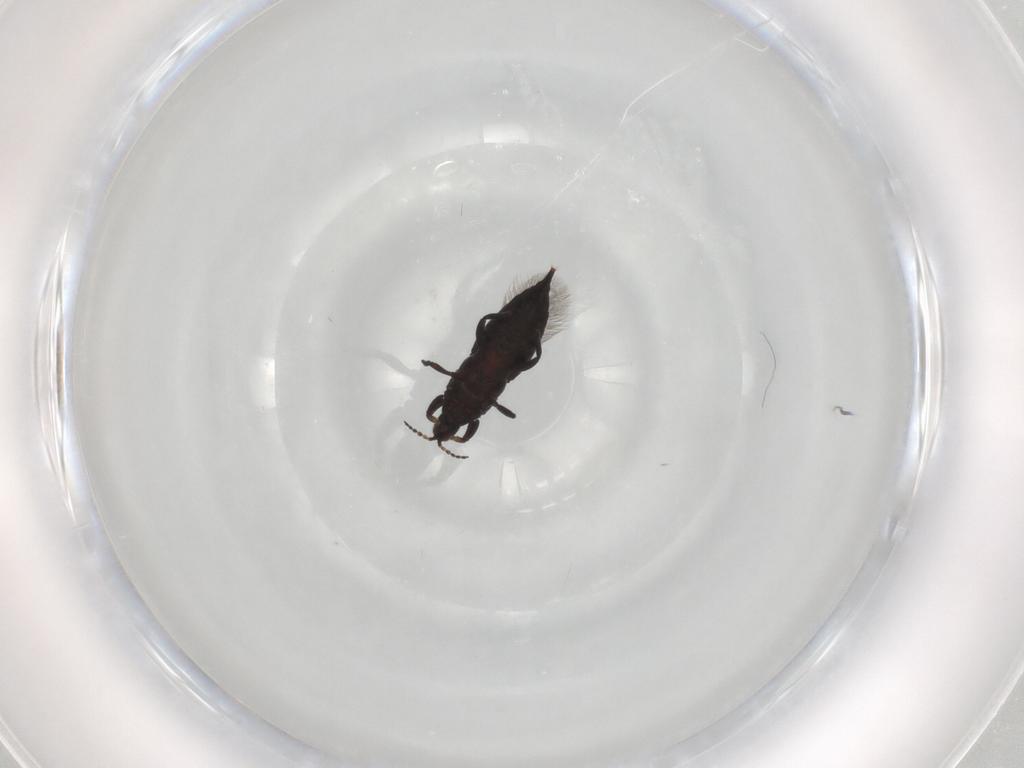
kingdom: Animalia
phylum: Arthropoda
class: Insecta
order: Thysanoptera
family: Phlaeothripidae
